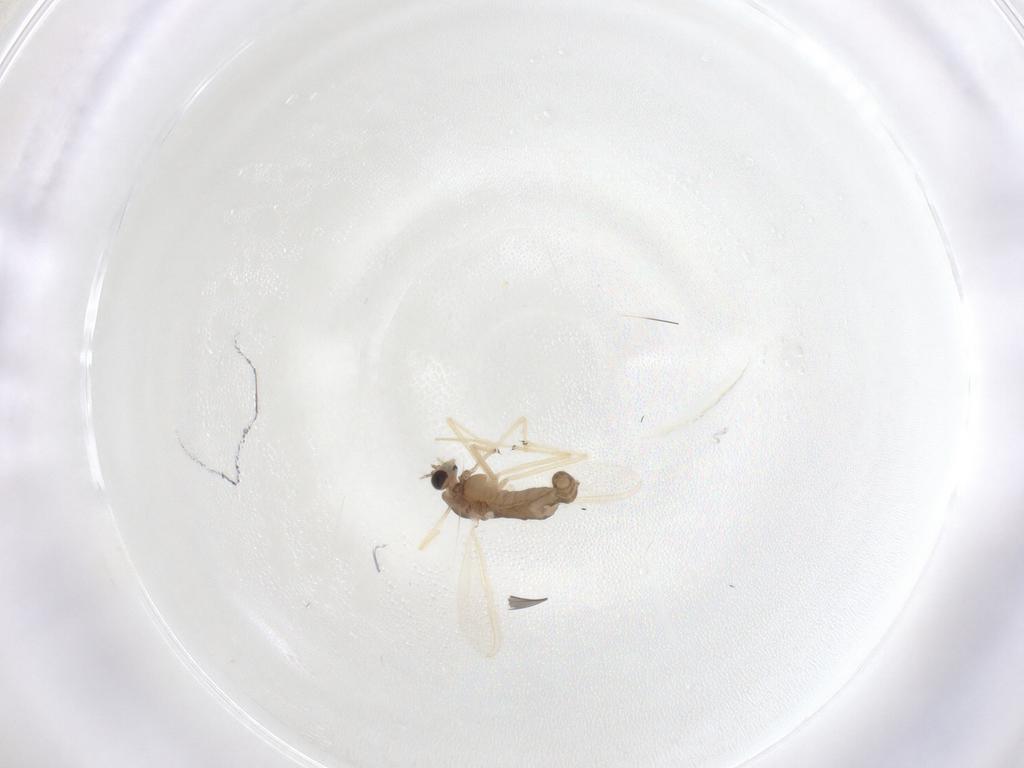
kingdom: Animalia
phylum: Arthropoda
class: Insecta
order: Diptera
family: Chironomidae
